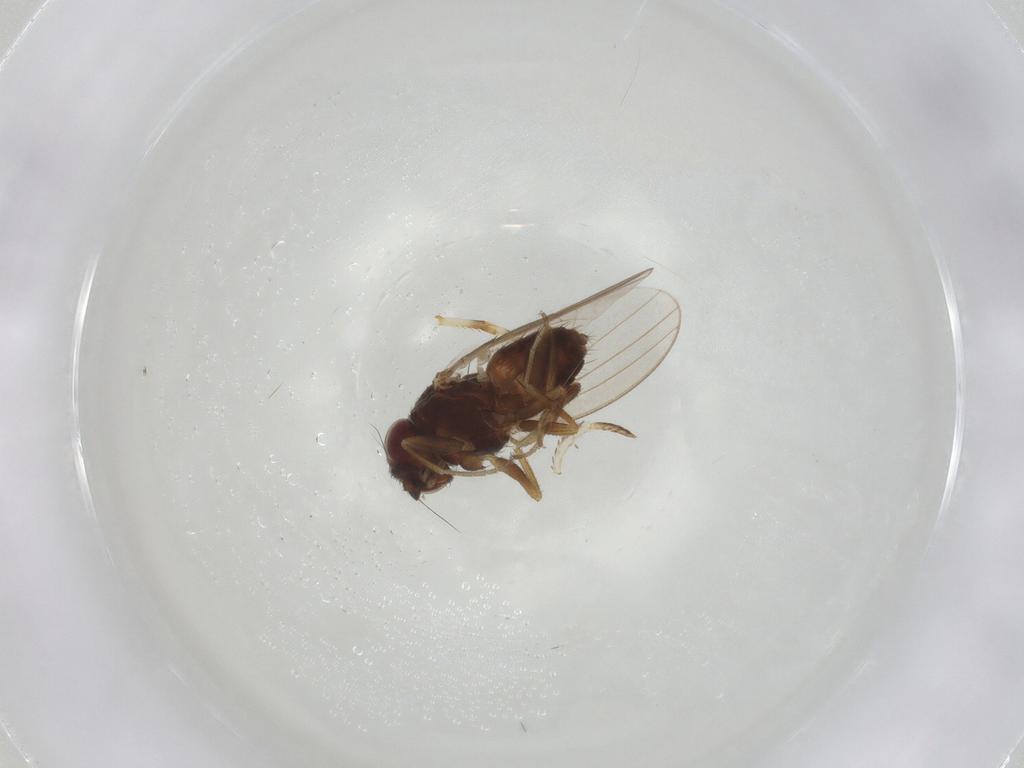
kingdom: Animalia
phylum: Arthropoda
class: Insecta
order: Lepidoptera
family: Blastobasidae
